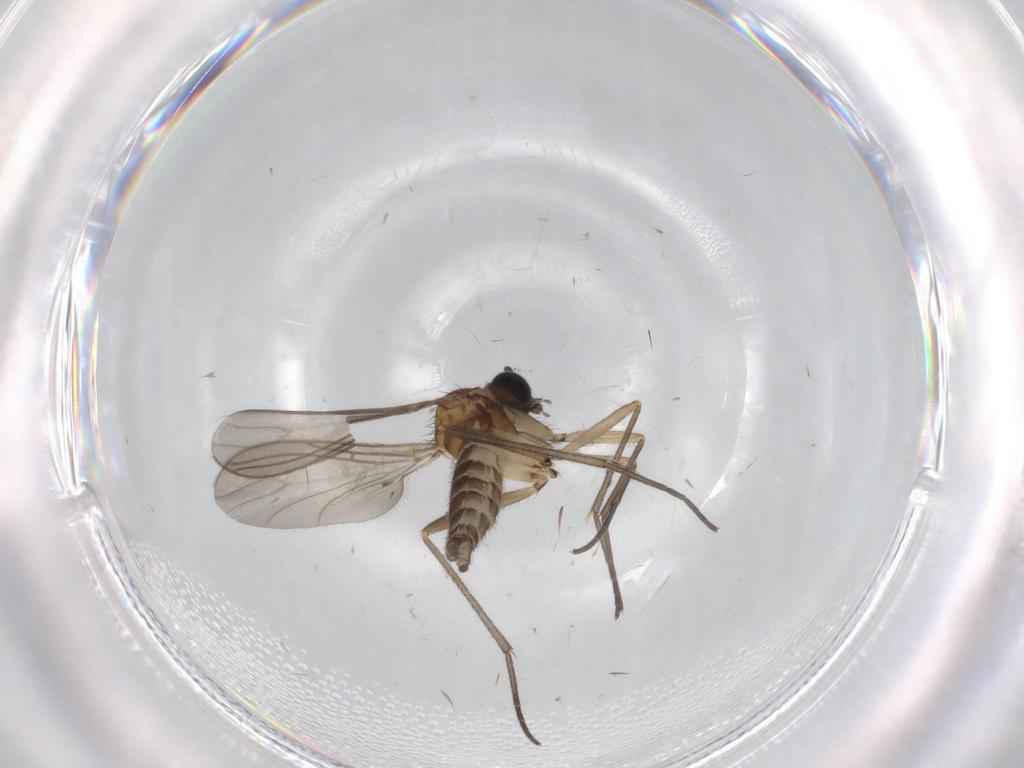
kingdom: Animalia
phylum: Arthropoda
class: Insecta
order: Diptera
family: Sciaridae
